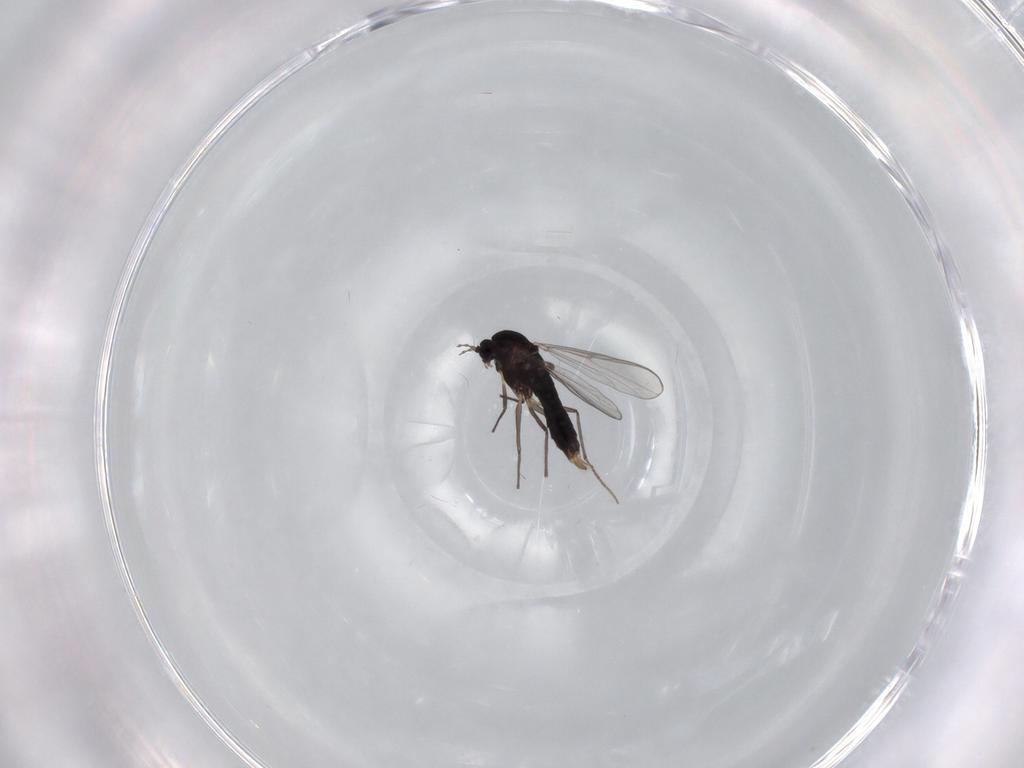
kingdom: Animalia
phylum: Arthropoda
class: Insecta
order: Diptera
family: Chironomidae
